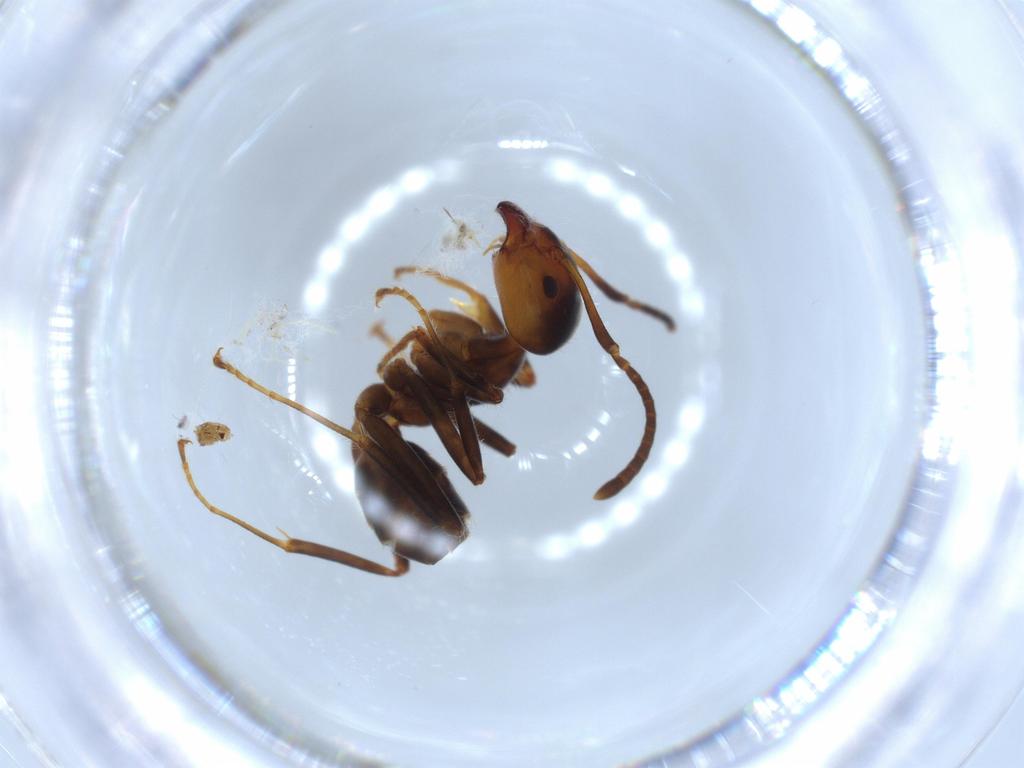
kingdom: Animalia
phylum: Arthropoda
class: Insecta
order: Hymenoptera
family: Formicidae
